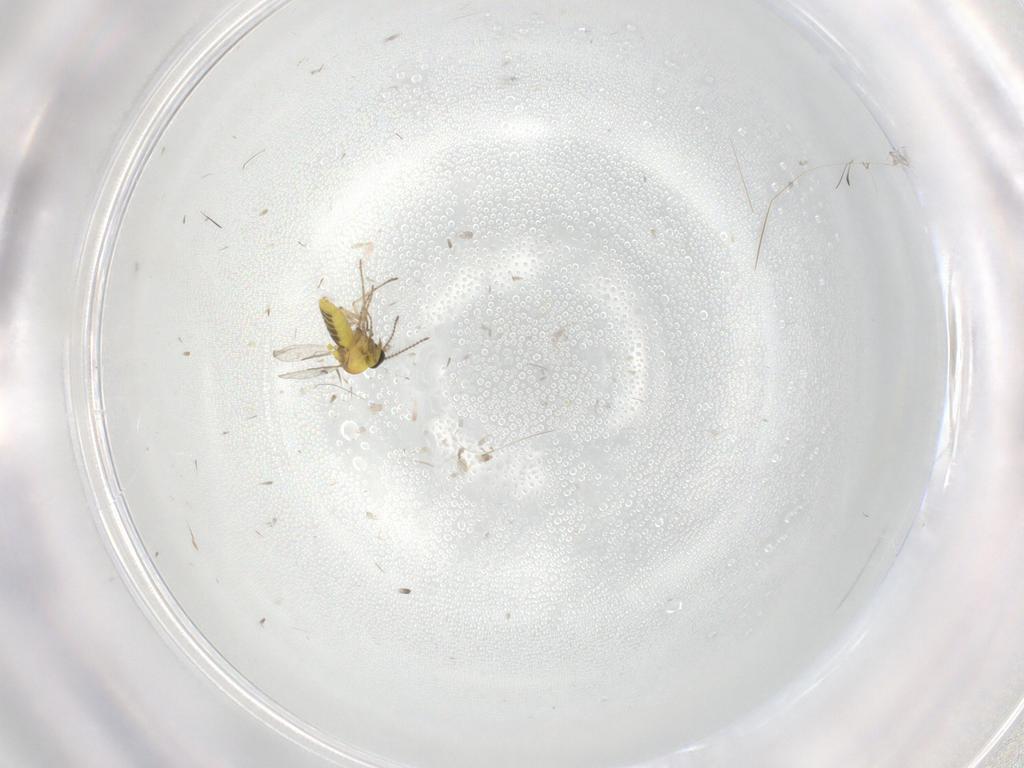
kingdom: Animalia
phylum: Arthropoda
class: Insecta
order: Diptera
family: Ceratopogonidae
